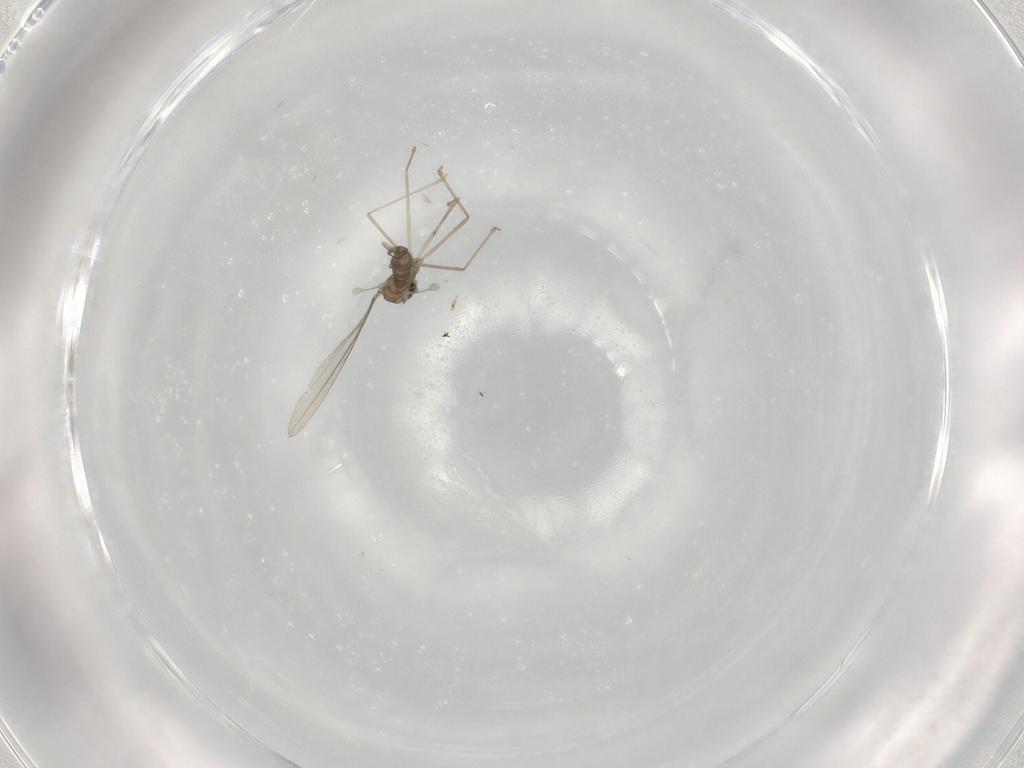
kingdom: Animalia
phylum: Arthropoda
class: Insecta
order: Diptera
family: Cecidomyiidae
